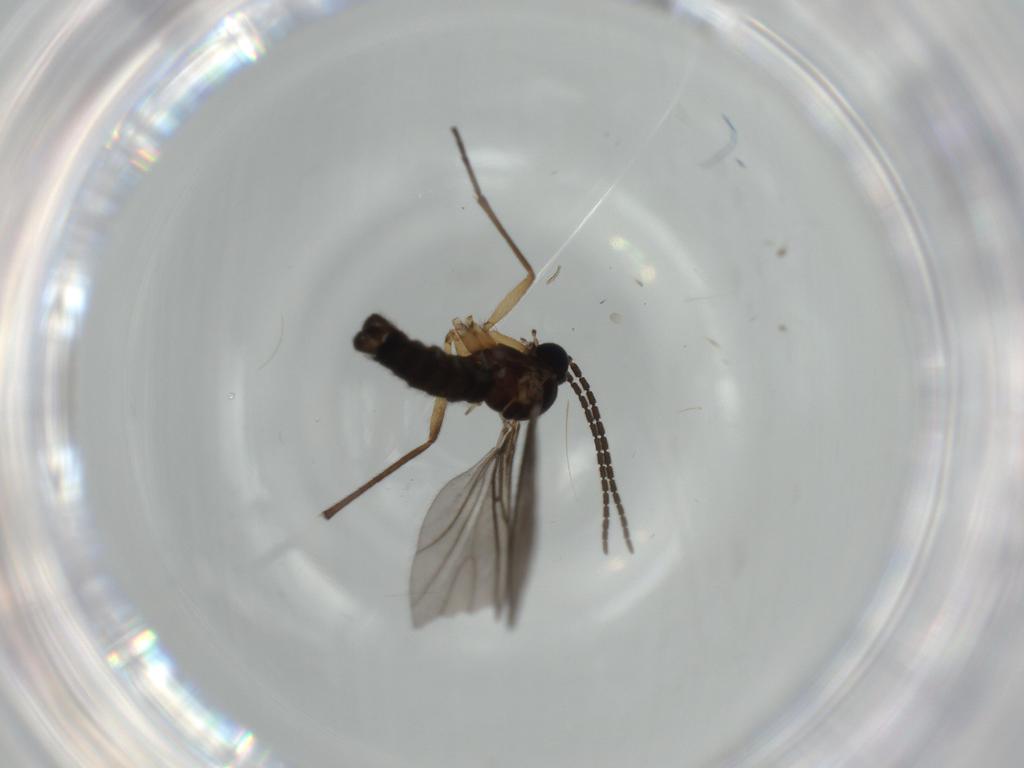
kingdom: Animalia
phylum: Arthropoda
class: Insecta
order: Diptera
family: Sciaridae
